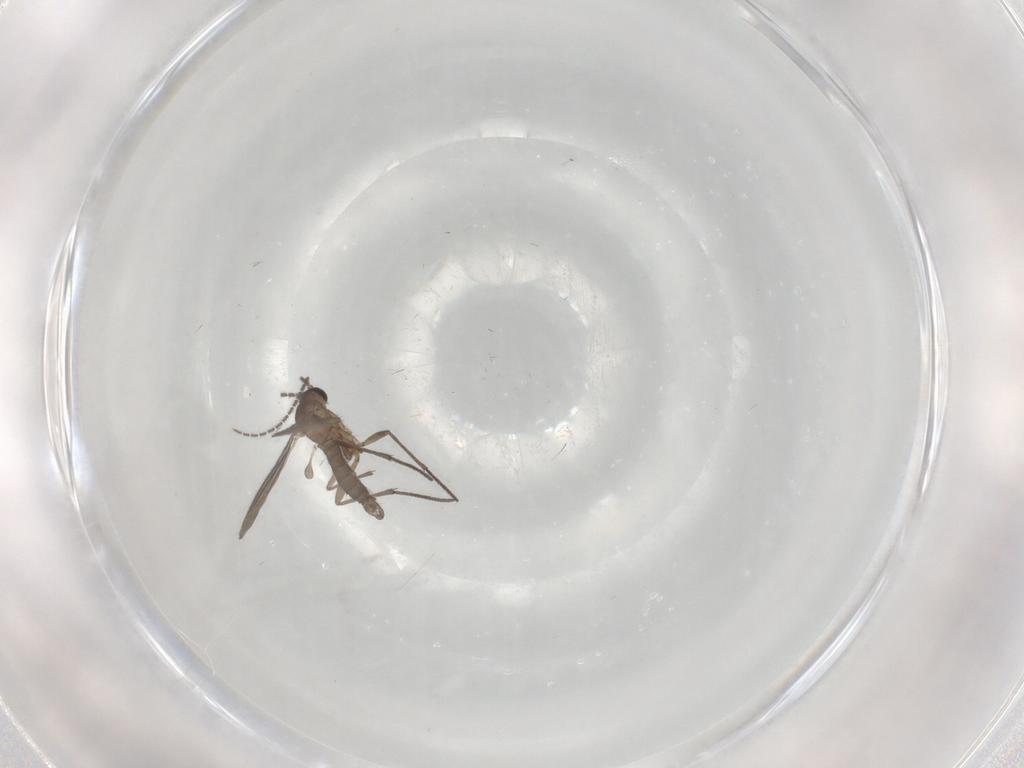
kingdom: Animalia
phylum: Arthropoda
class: Insecta
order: Diptera
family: Sciaridae
